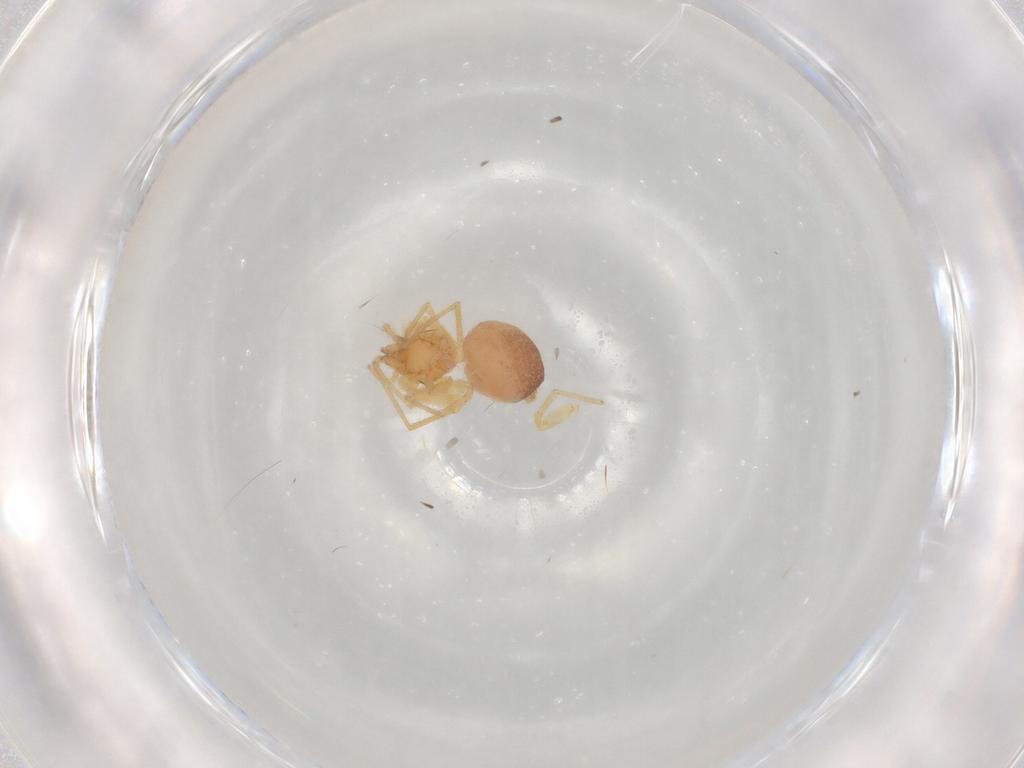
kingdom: Animalia
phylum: Arthropoda
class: Arachnida
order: Araneae
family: Dictynidae
